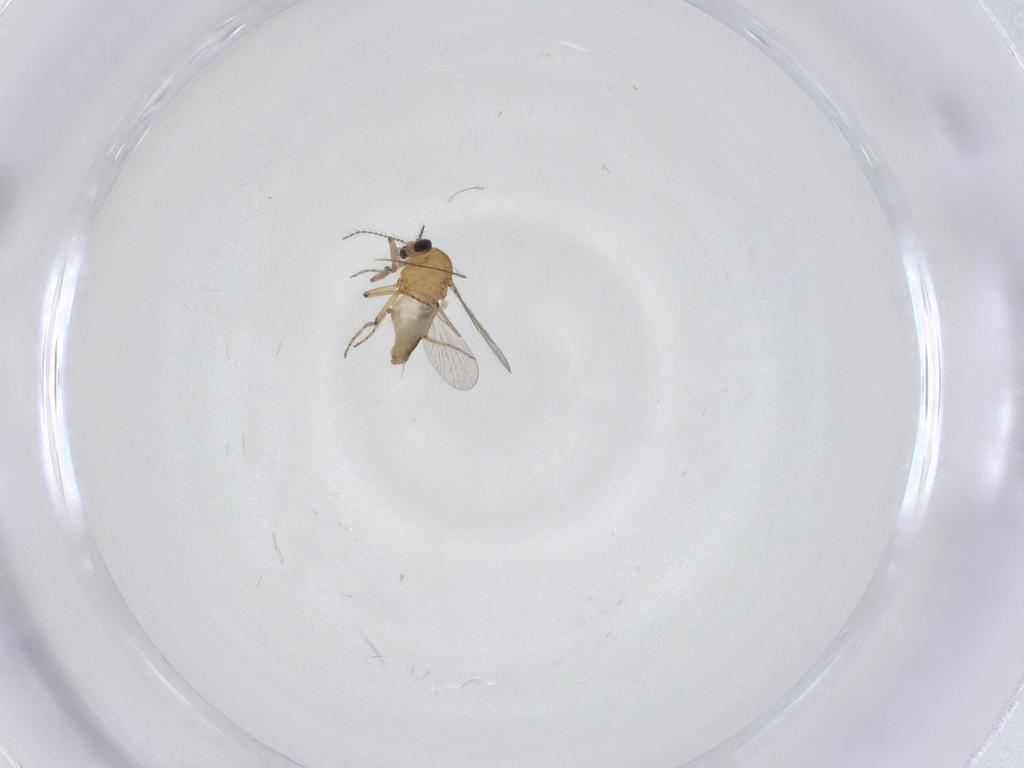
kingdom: Animalia
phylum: Arthropoda
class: Insecta
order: Diptera
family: Ceratopogonidae
